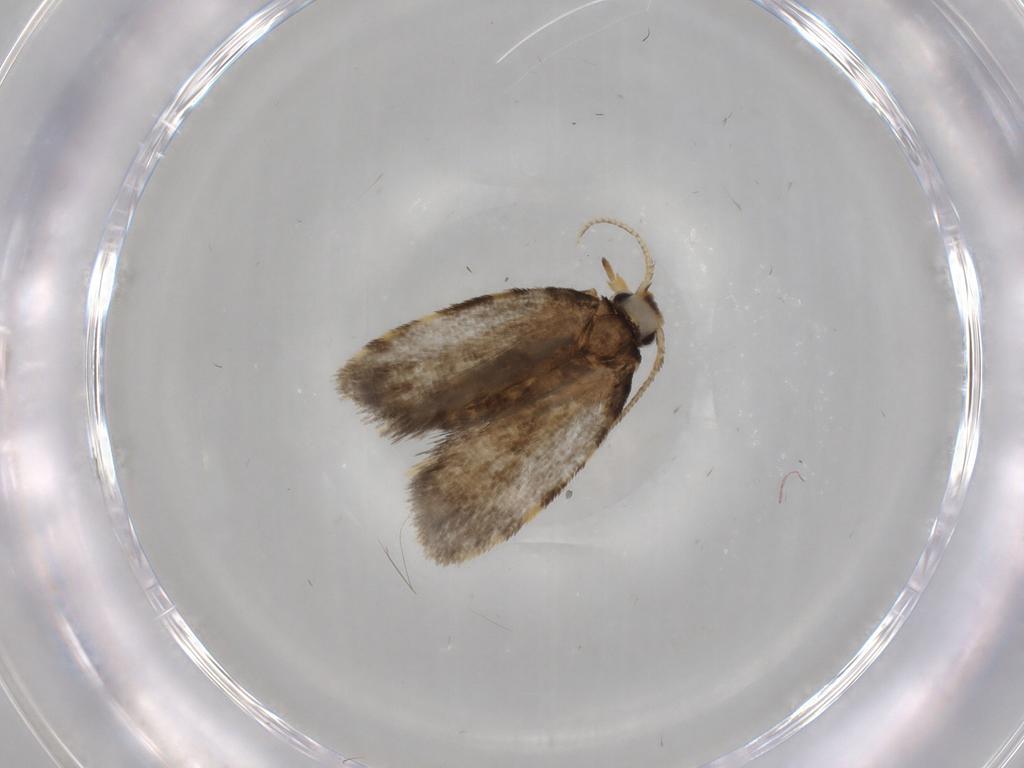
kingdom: Animalia
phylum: Arthropoda
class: Insecta
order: Lepidoptera
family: Psychidae
